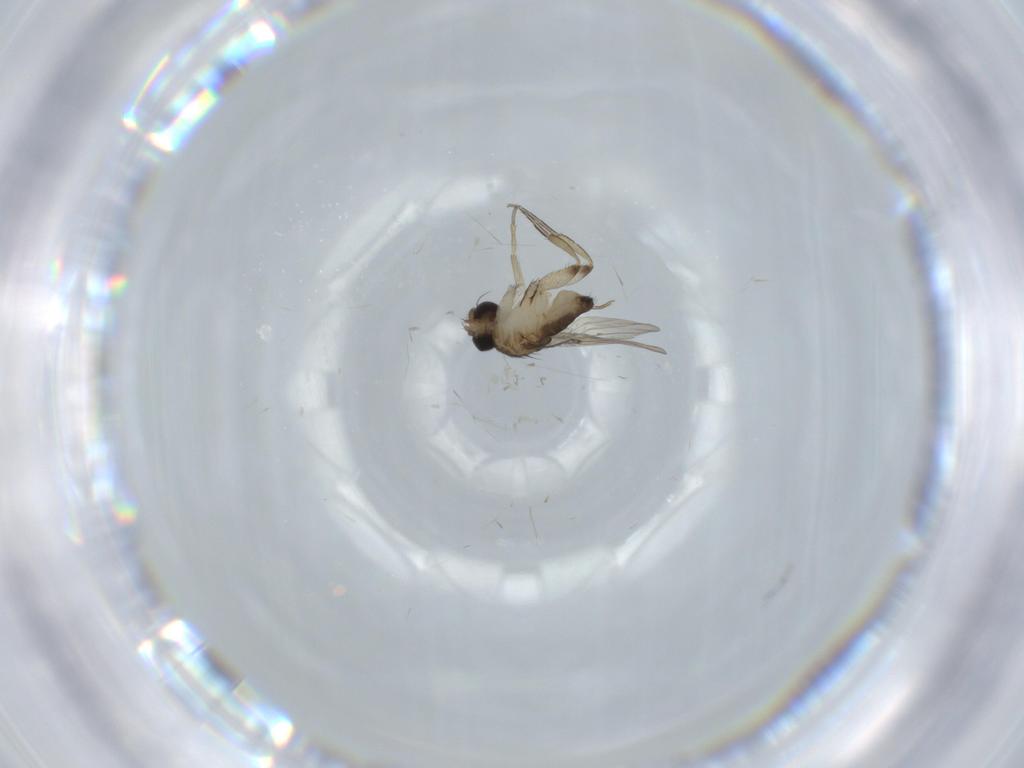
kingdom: Animalia
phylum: Arthropoda
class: Insecta
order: Diptera
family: Phoridae
